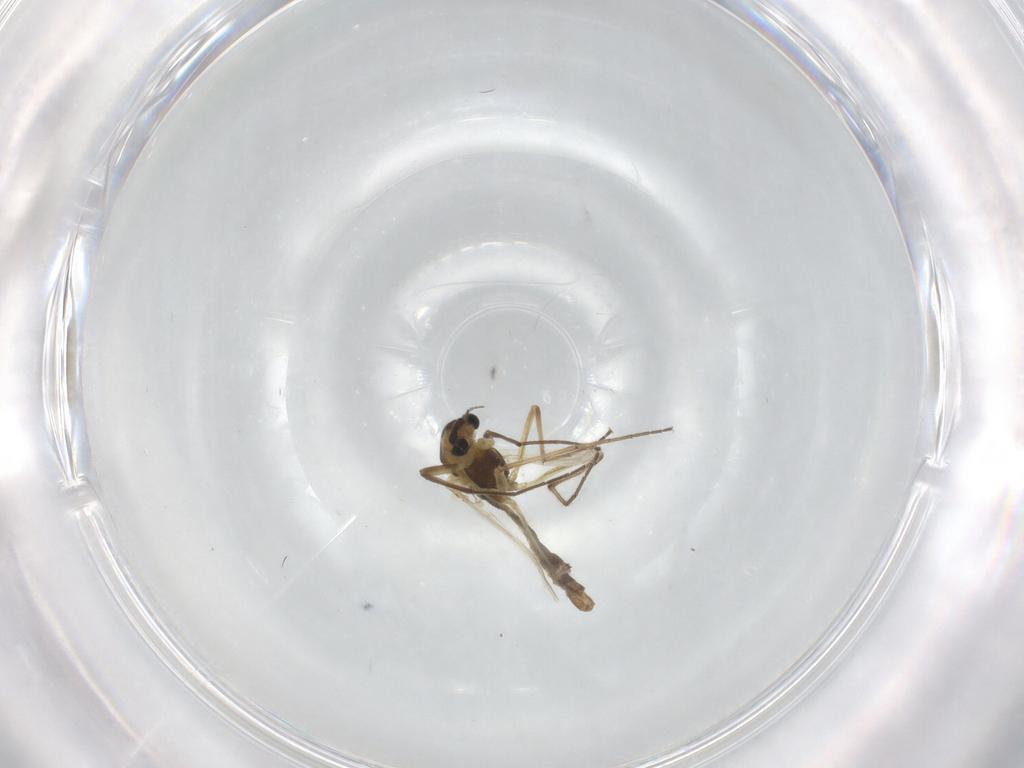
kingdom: Animalia
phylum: Arthropoda
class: Insecta
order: Diptera
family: Chironomidae
